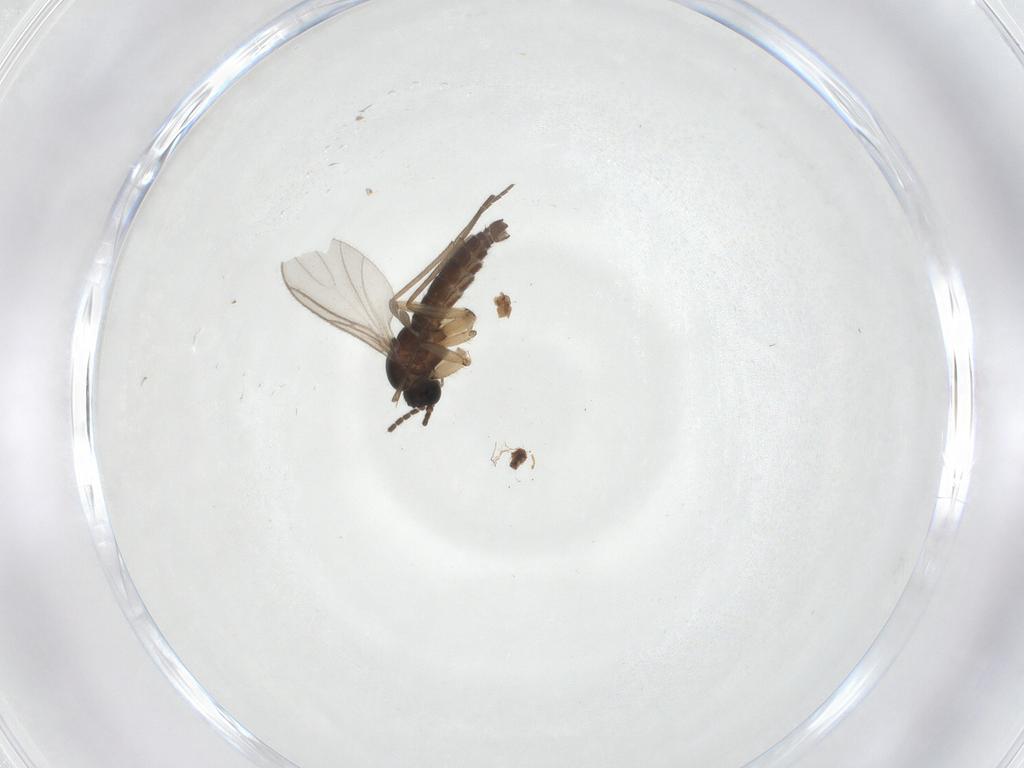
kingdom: Animalia
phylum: Arthropoda
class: Insecta
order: Diptera
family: Sciaridae
